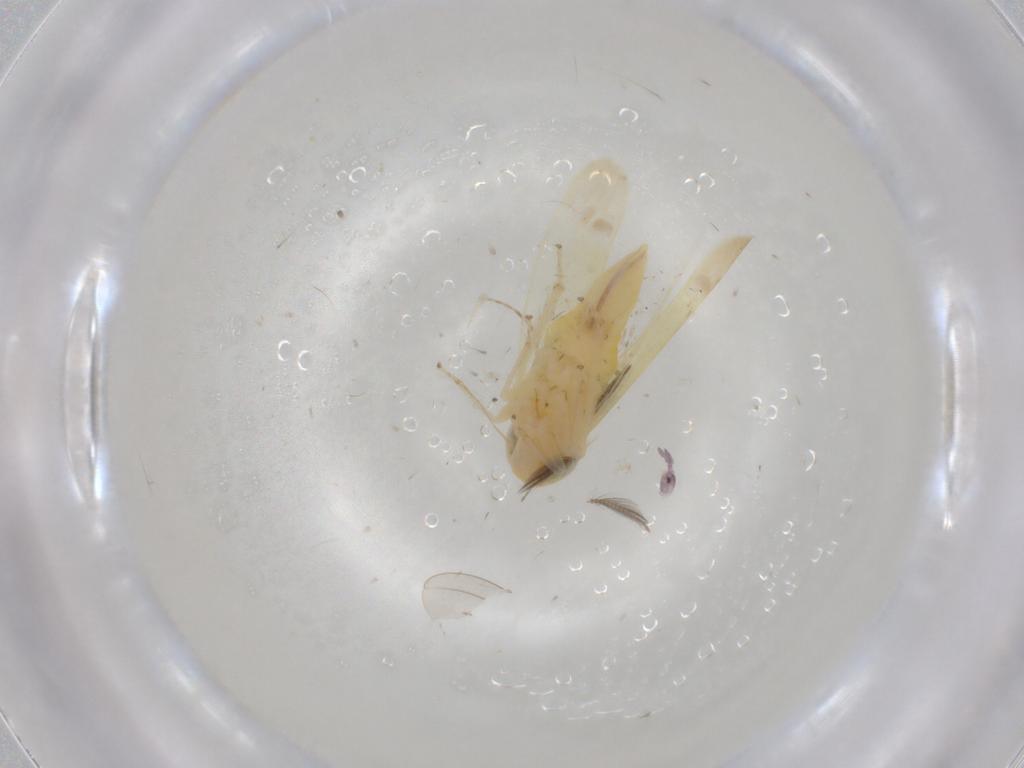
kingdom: Animalia
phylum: Arthropoda
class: Insecta
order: Hemiptera
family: Cicadellidae
